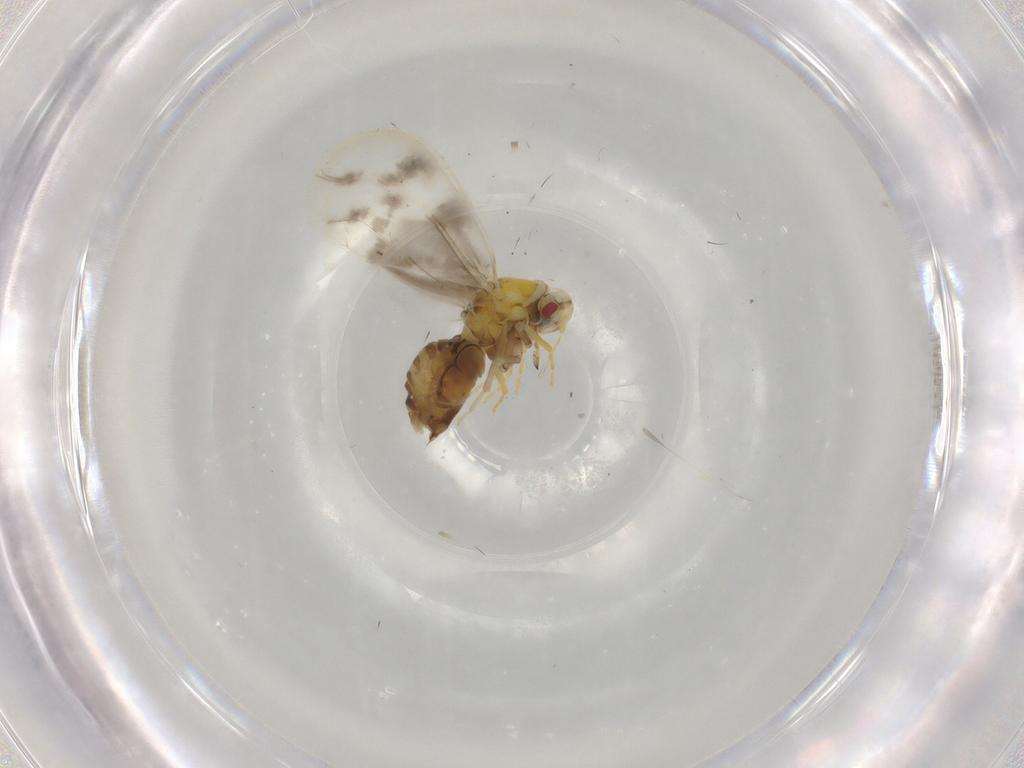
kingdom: Animalia
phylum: Arthropoda
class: Insecta
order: Hemiptera
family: Aleyrodidae
